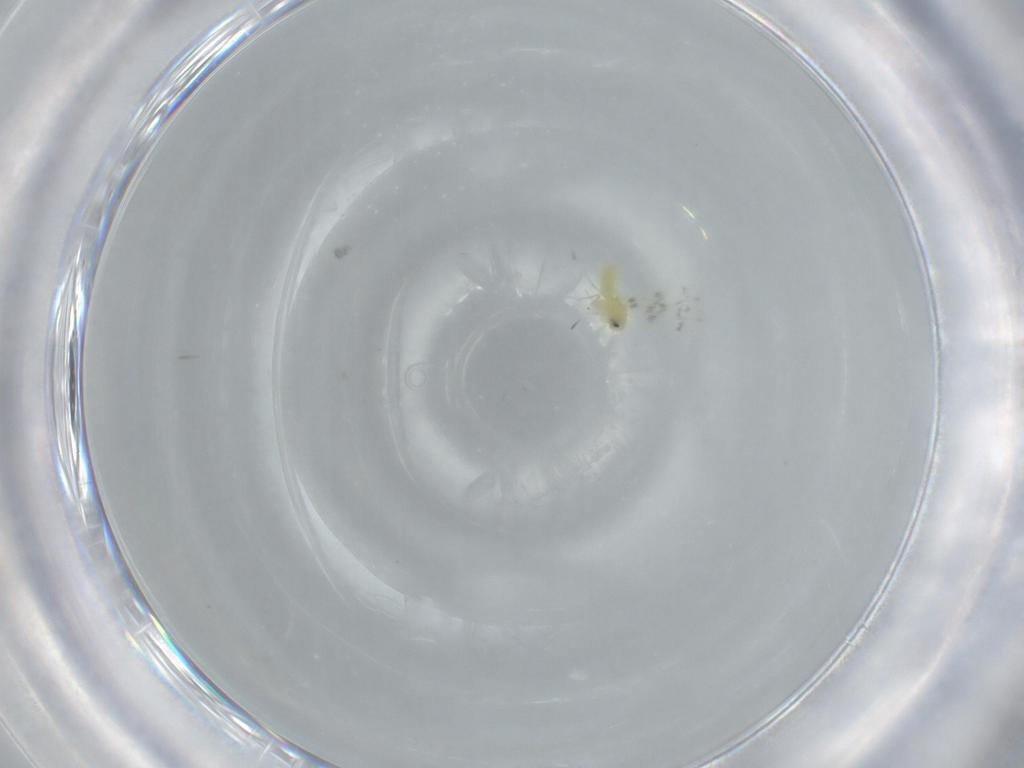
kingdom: Animalia
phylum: Arthropoda
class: Insecta
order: Hemiptera
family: Aleyrodidae
